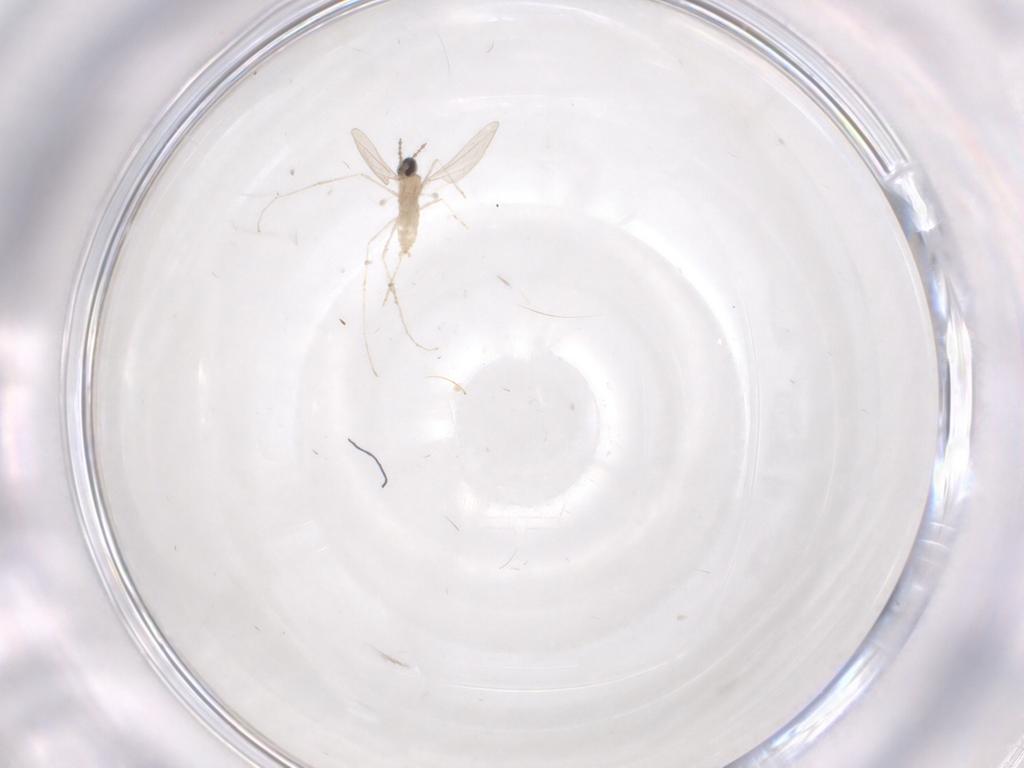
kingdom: Animalia
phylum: Arthropoda
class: Insecta
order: Diptera
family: Cecidomyiidae
